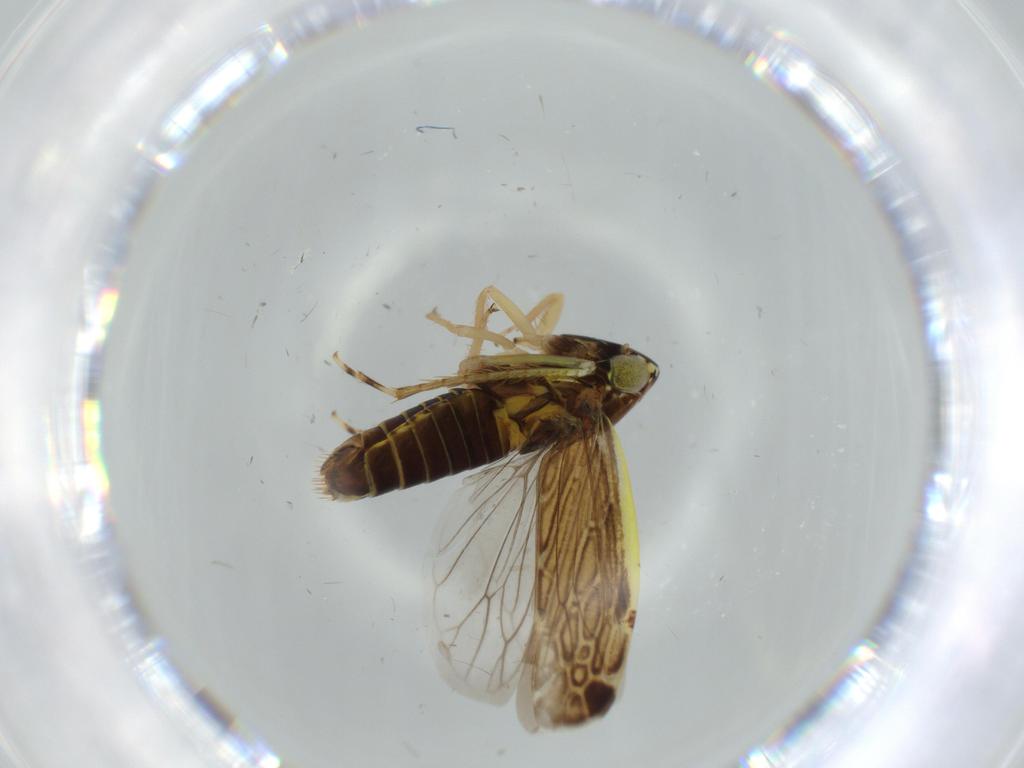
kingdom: Animalia
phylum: Arthropoda
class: Insecta
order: Hemiptera
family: Cicadellidae
